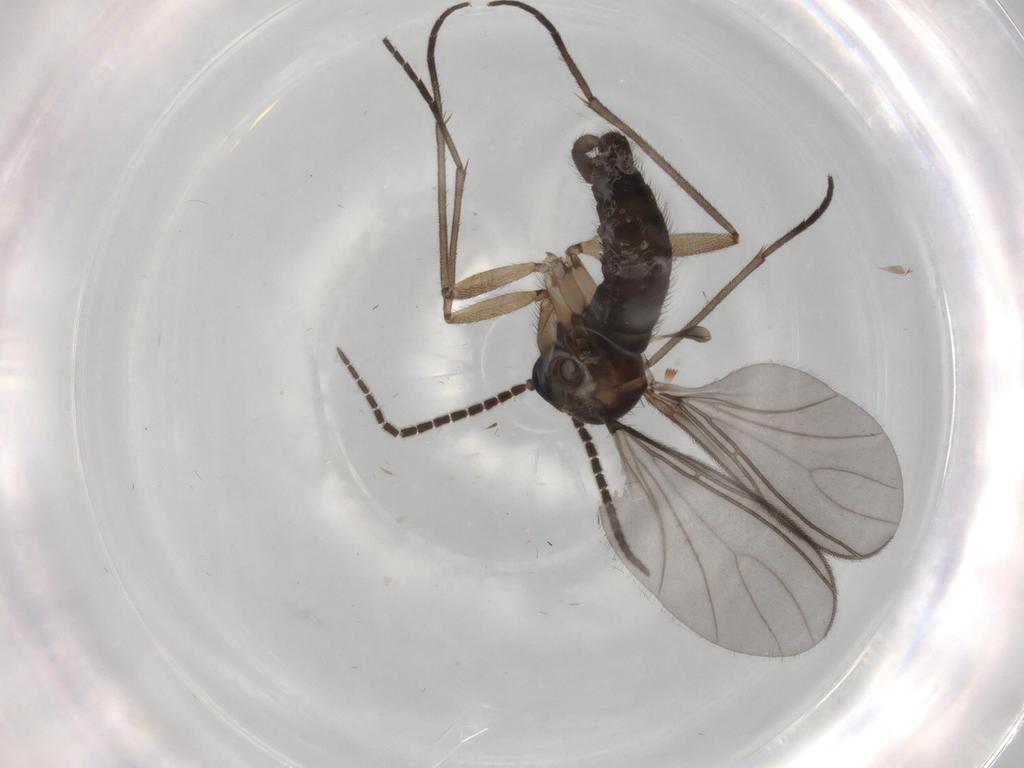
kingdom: Animalia
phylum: Arthropoda
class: Insecta
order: Diptera
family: Sciaridae
